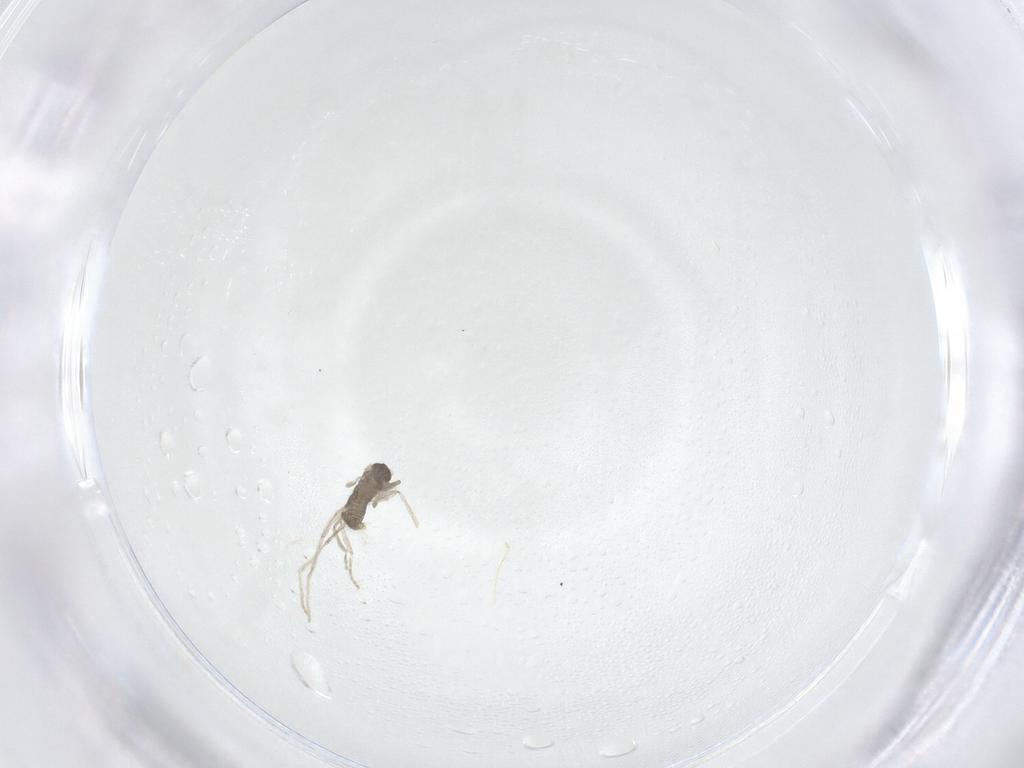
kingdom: Animalia
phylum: Arthropoda
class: Insecta
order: Diptera
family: Cecidomyiidae
